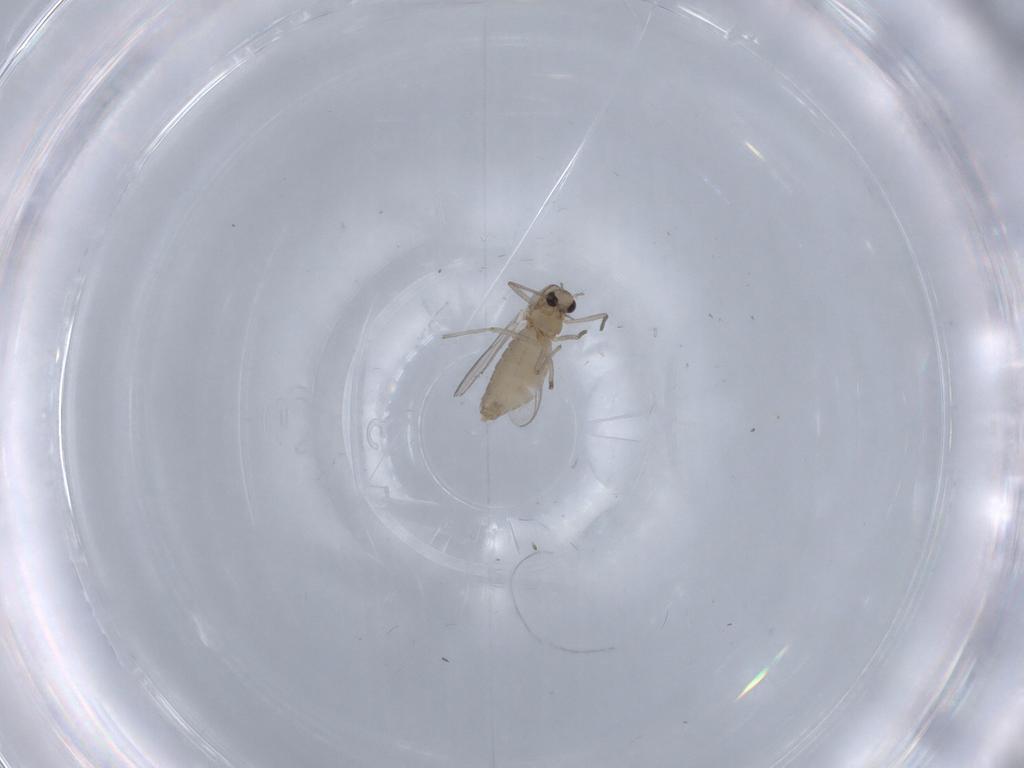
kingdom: Animalia
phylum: Arthropoda
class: Insecta
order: Diptera
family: Chironomidae
